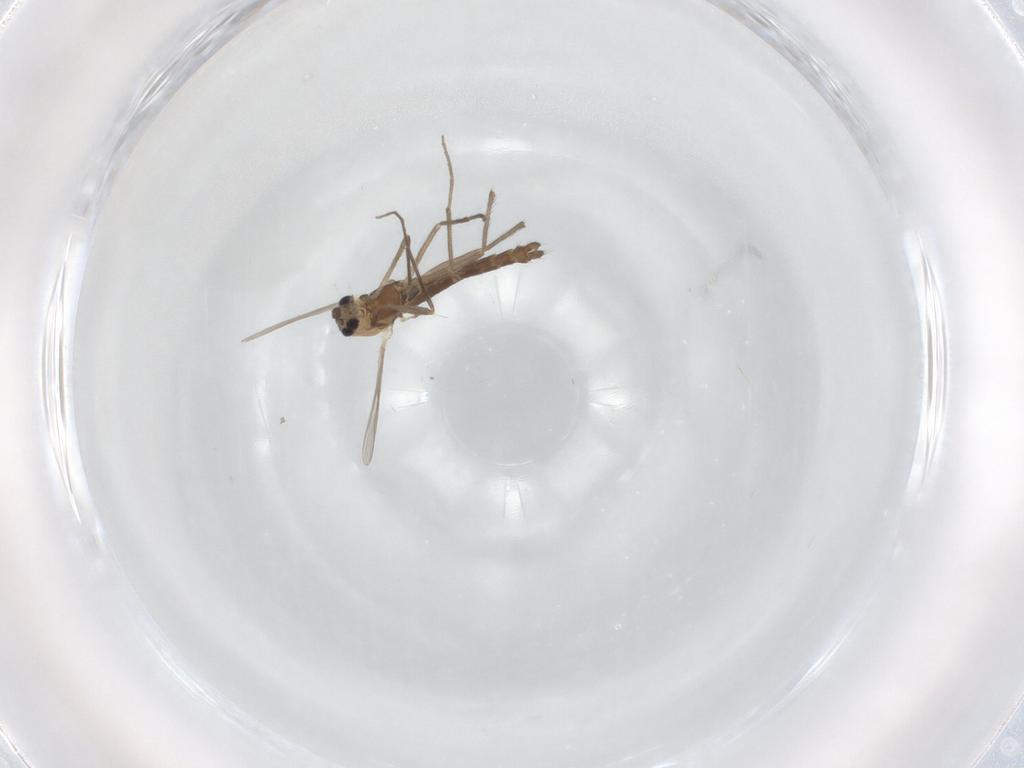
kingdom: Animalia
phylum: Arthropoda
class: Insecta
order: Diptera
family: Chironomidae
